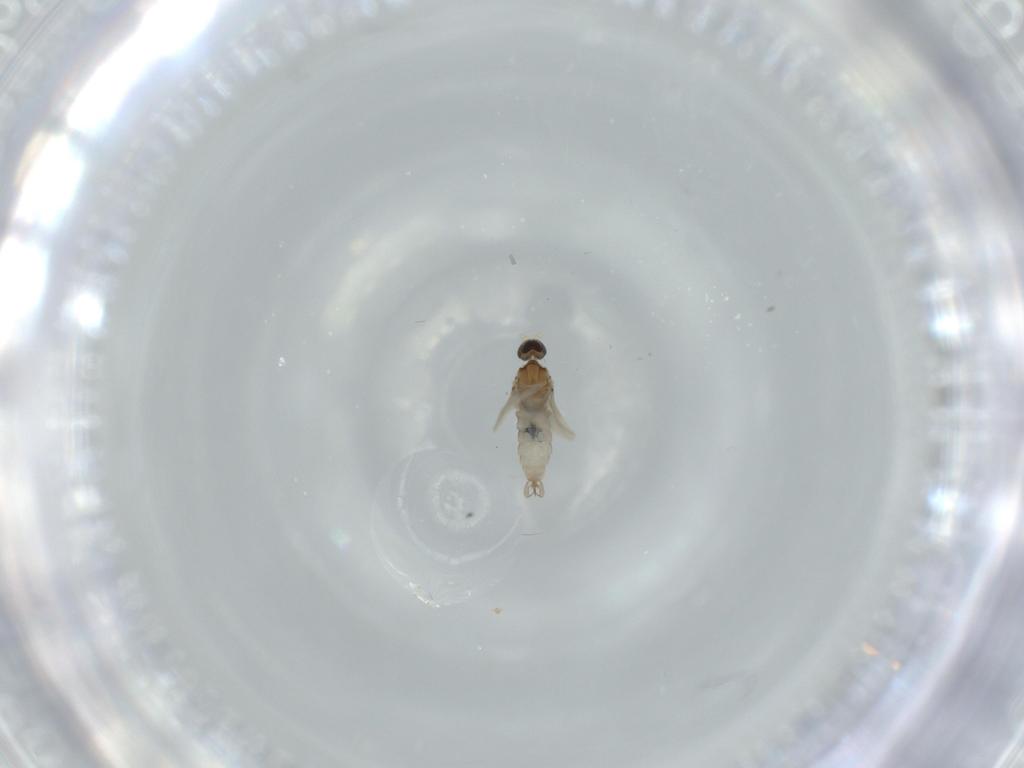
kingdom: Animalia
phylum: Arthropoda
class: Insecta
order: Diptera
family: Cecidomyiidae
